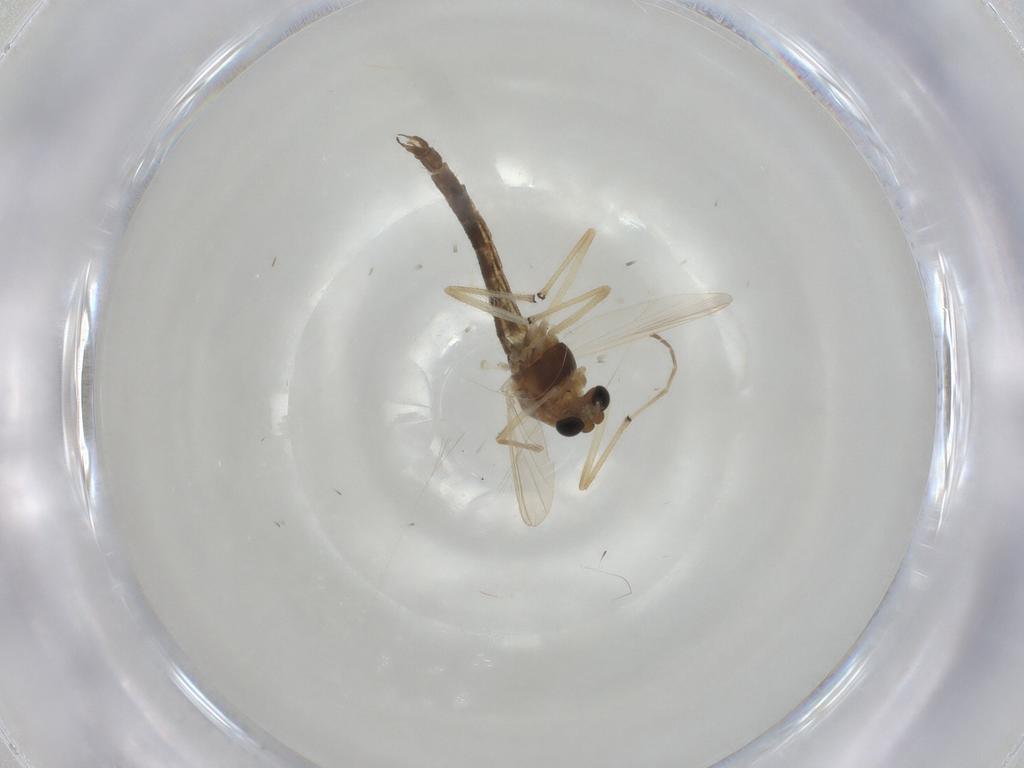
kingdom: Animalia
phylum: Arthropoda
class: Insecta
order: Diptera
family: Chironomidae
